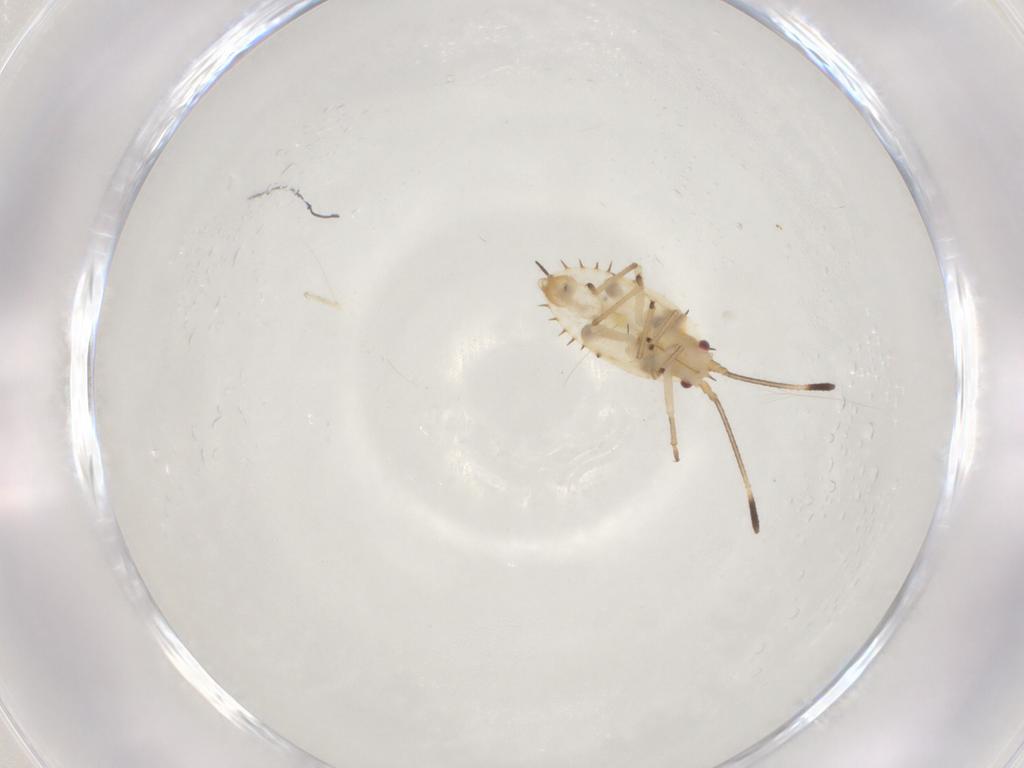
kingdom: Animalia
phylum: Arthropoda
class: Insecta
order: Hemiptera
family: Tingidae
